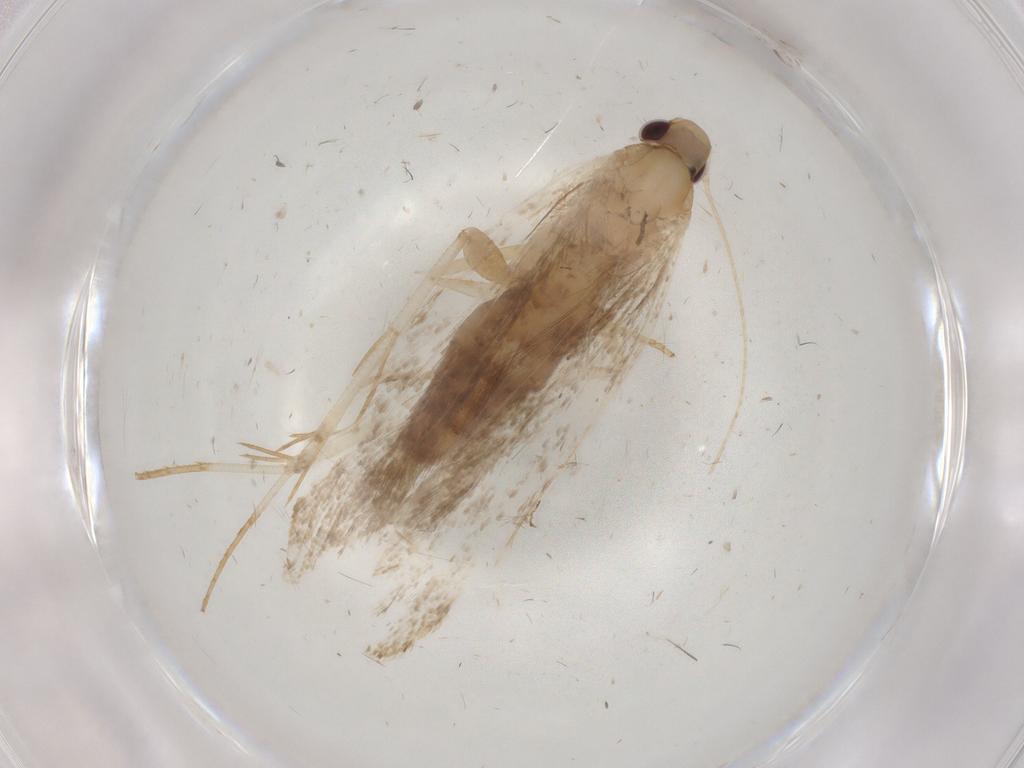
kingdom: Animalia
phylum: Arthropoda
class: Insecta
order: Lepidoptera
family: Gelechiidae
